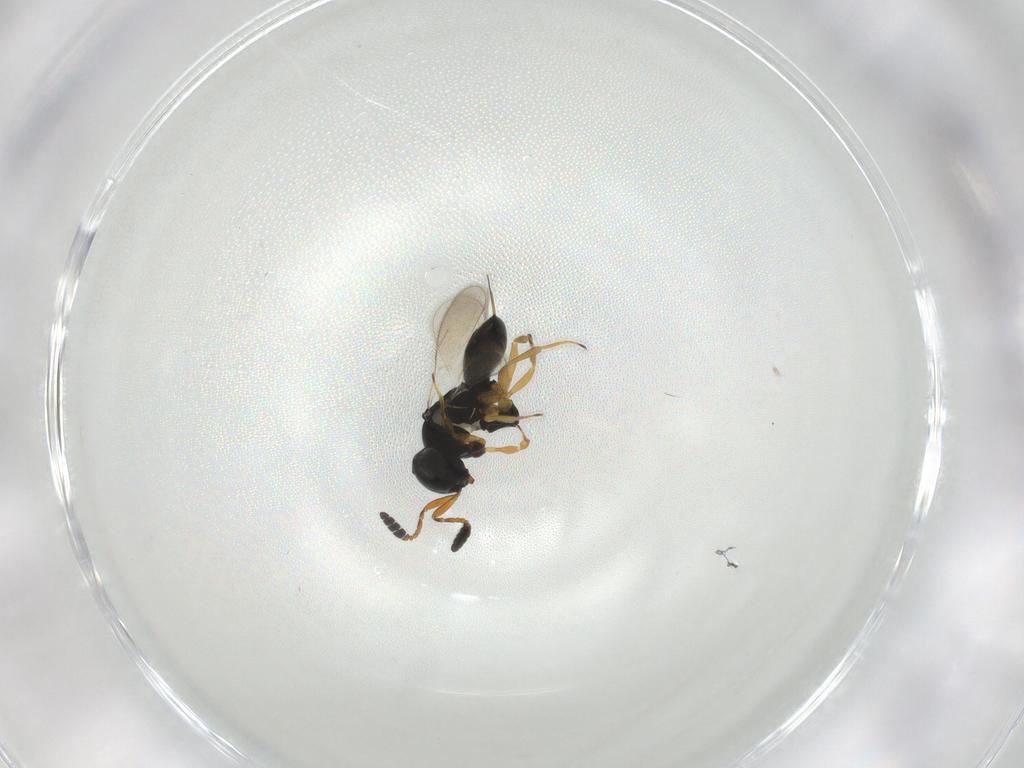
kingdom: Animalia
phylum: Arthropoda
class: Insecta
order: Hymenoptera
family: Scelionidae
